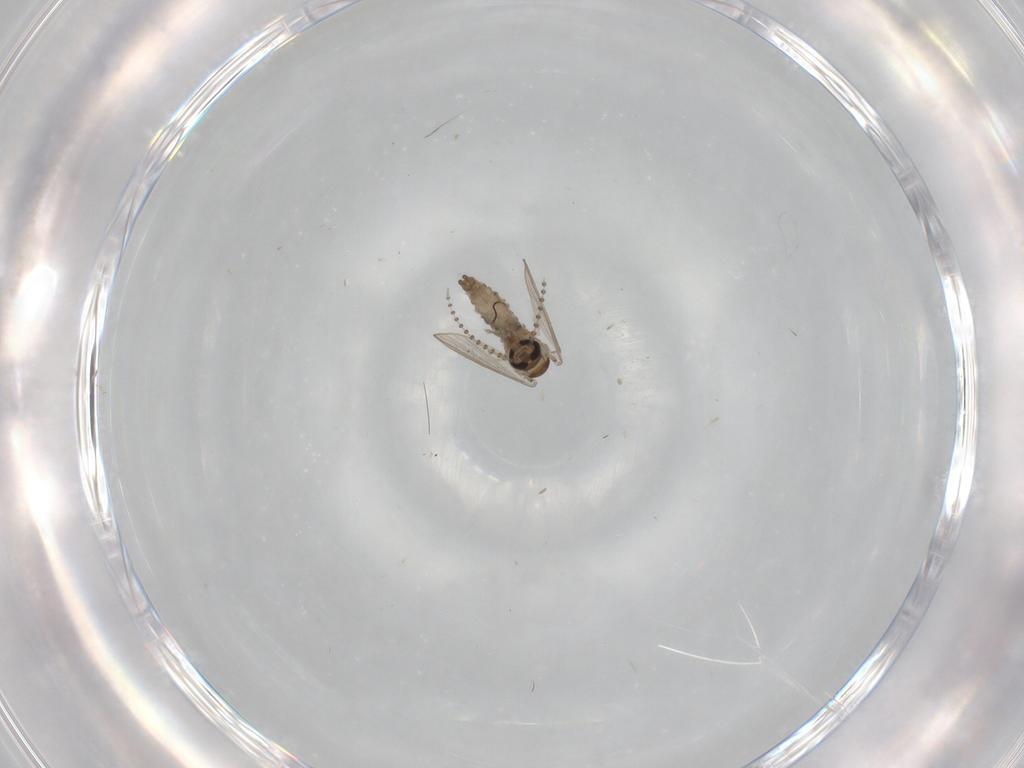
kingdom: Animalia
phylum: Arthropoda
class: Insecta
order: Diptera
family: Psychodidae
